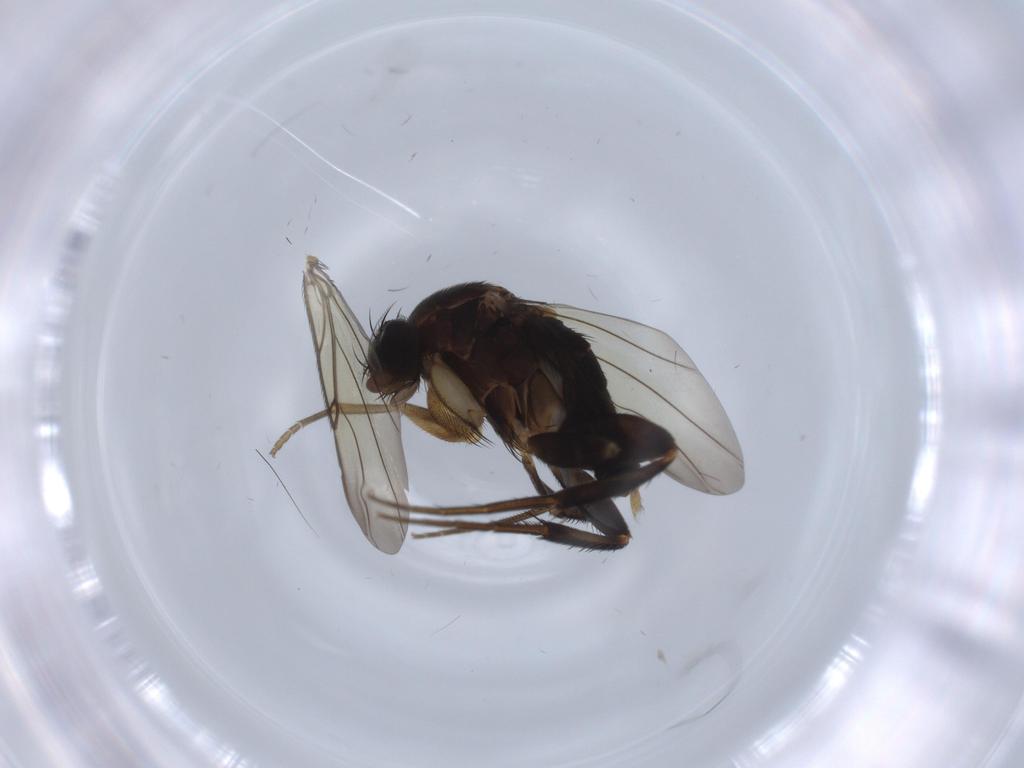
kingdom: Animalia
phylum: Arthropoda
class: Insecta
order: Diptera
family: Phoridae
